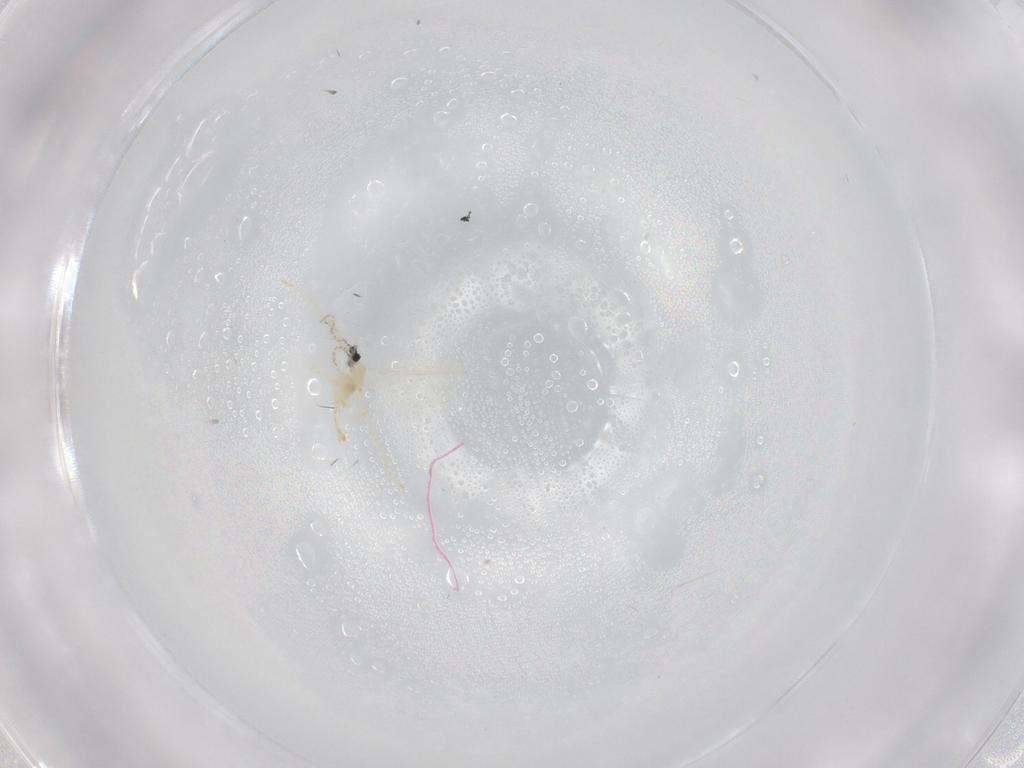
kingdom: Animalia
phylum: Arthropoda
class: Insecta
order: Diptera
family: Cecidomyiidae
